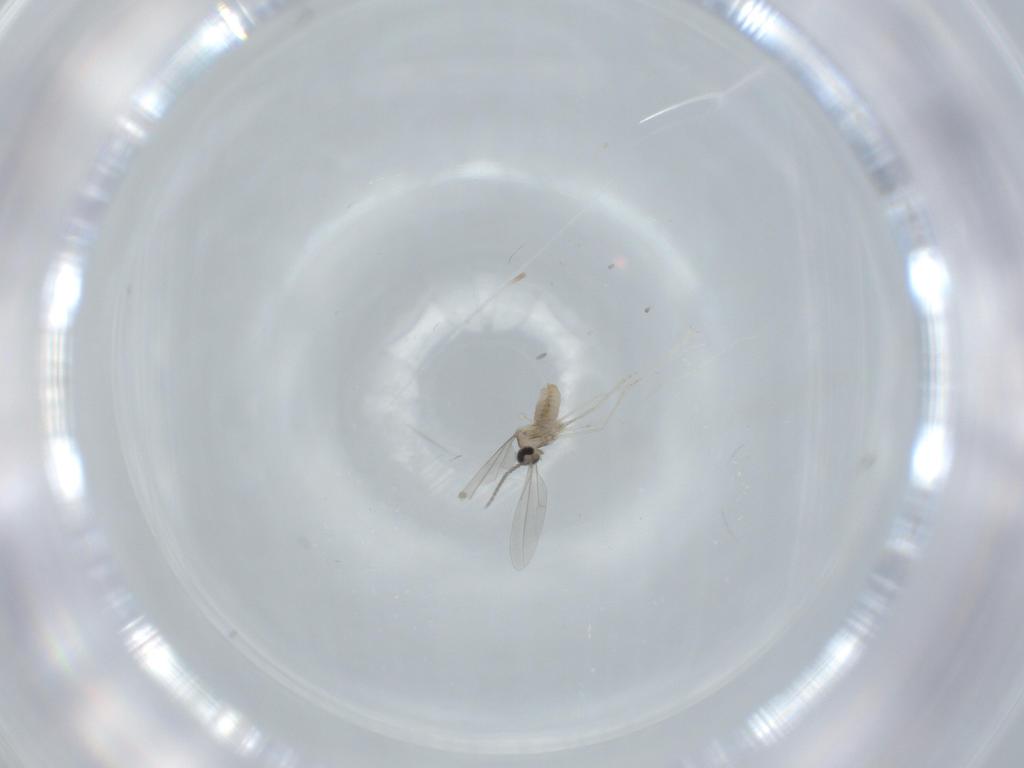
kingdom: Animalia
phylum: Arthropoda
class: Insecta
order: Diptera
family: Cecidomyiidae
